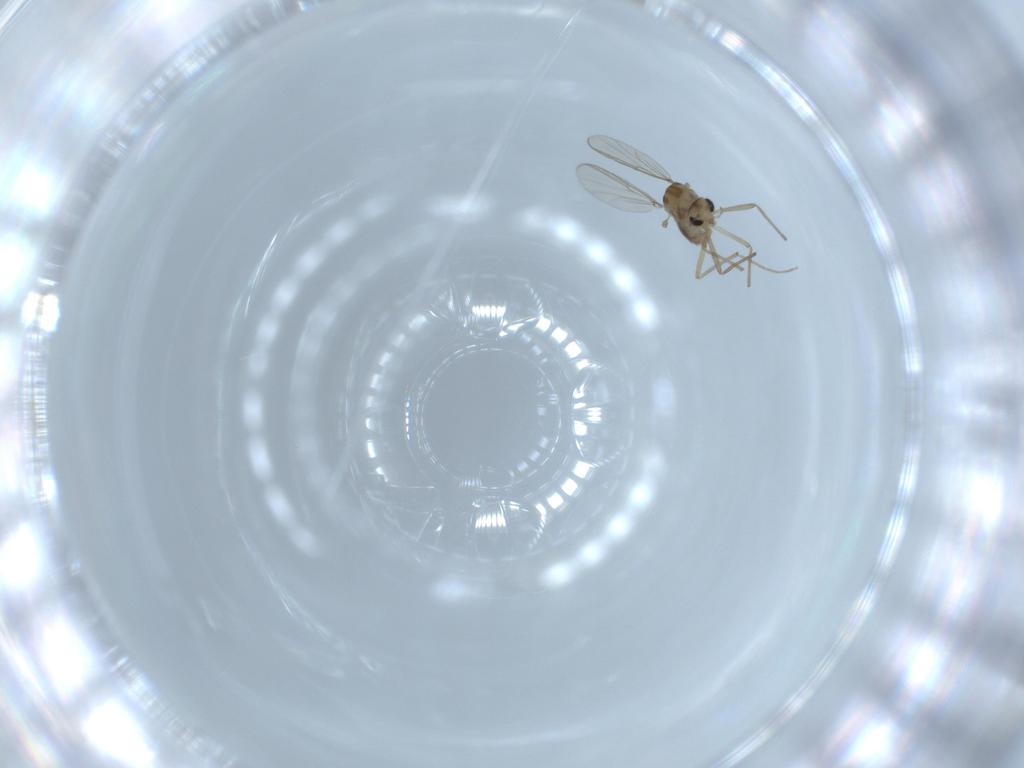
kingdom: Animalia
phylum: Arthropoda
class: Insecta
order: Diptera
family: Chironomidae
